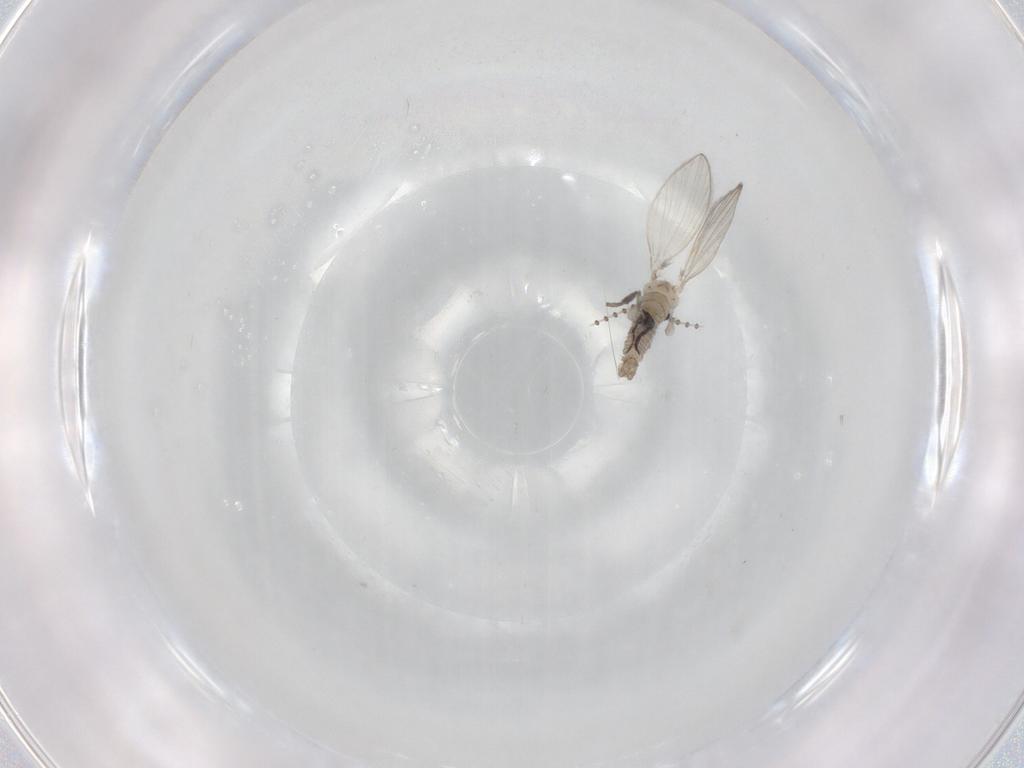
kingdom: Animalia
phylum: Arthropoda
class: Insecta
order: Diptera
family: Psychodidae
